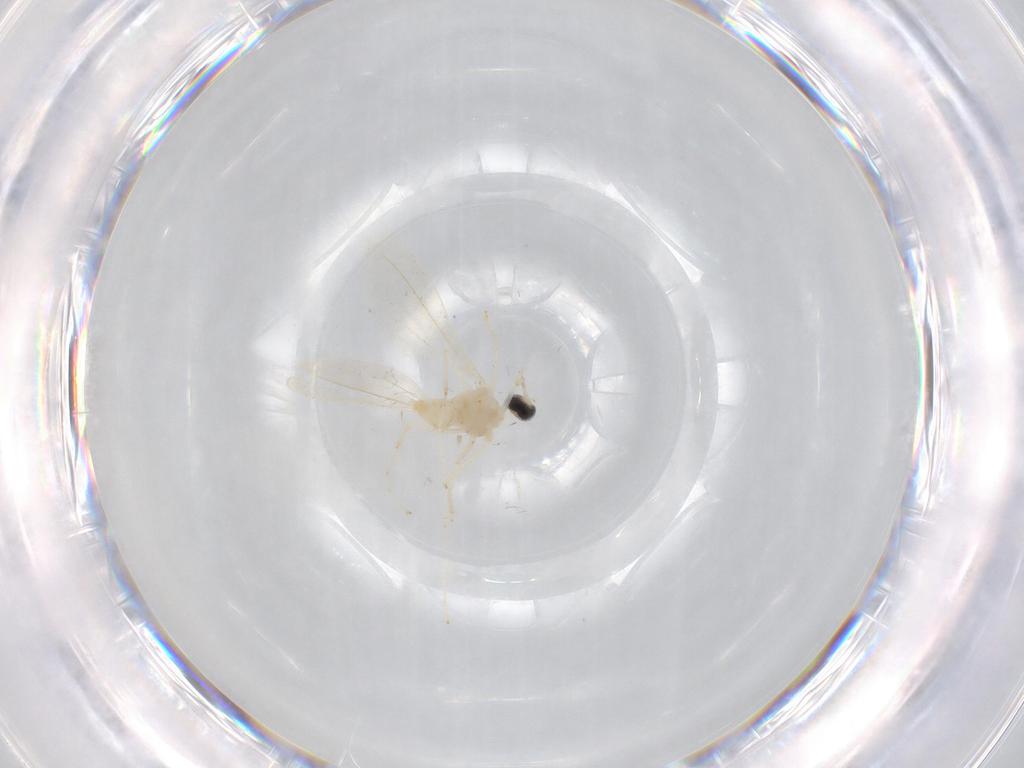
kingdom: Animalia
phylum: Arthropoda
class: Insecta
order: Diptera
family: Cecidomyiidae
